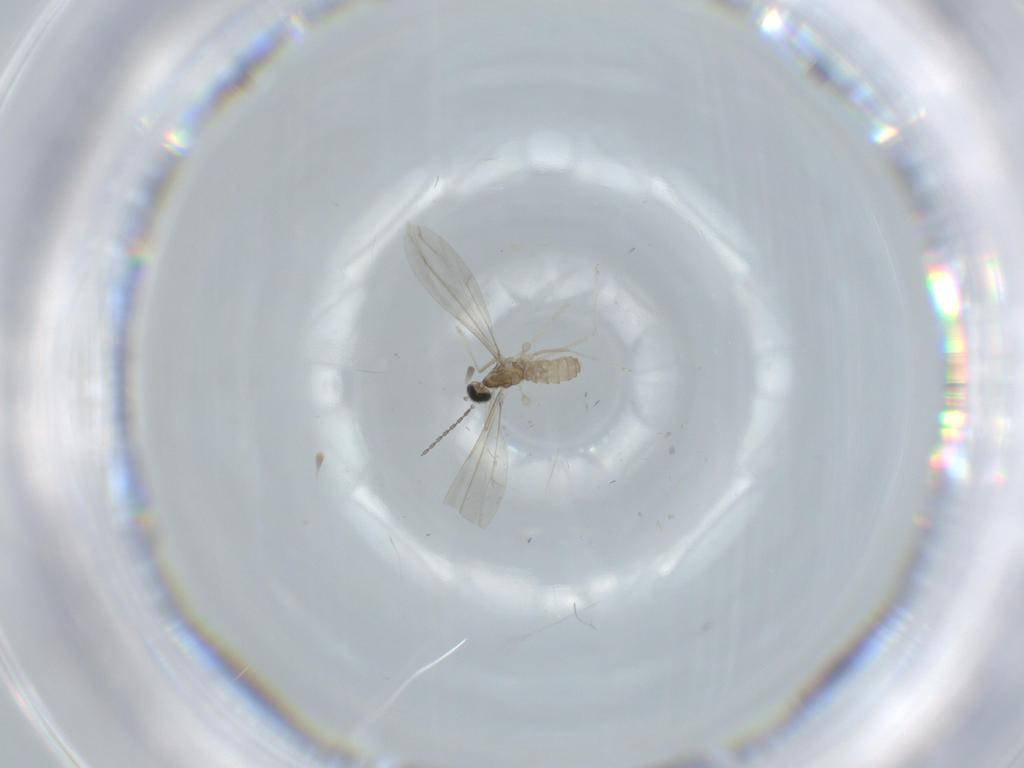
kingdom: Animalia
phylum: Arthropoda
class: Insecta
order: Diptera
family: Cecidomyiidae
